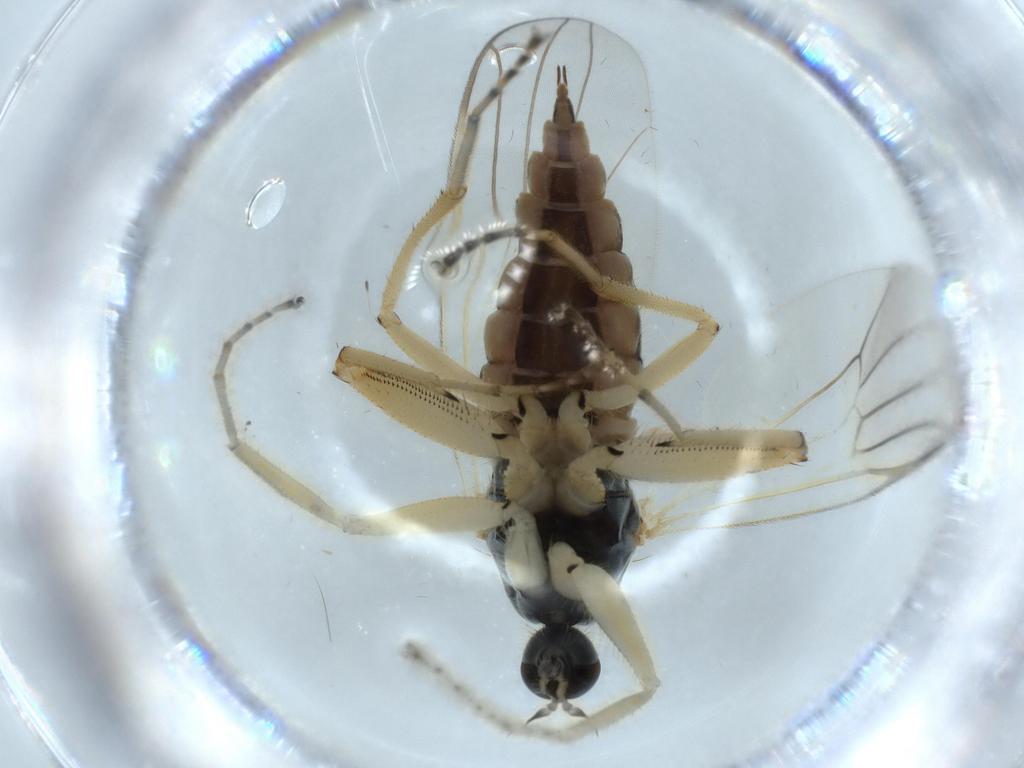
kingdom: Animalia
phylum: Arthropoda
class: Insecta
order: Diptera
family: Hybotidae
